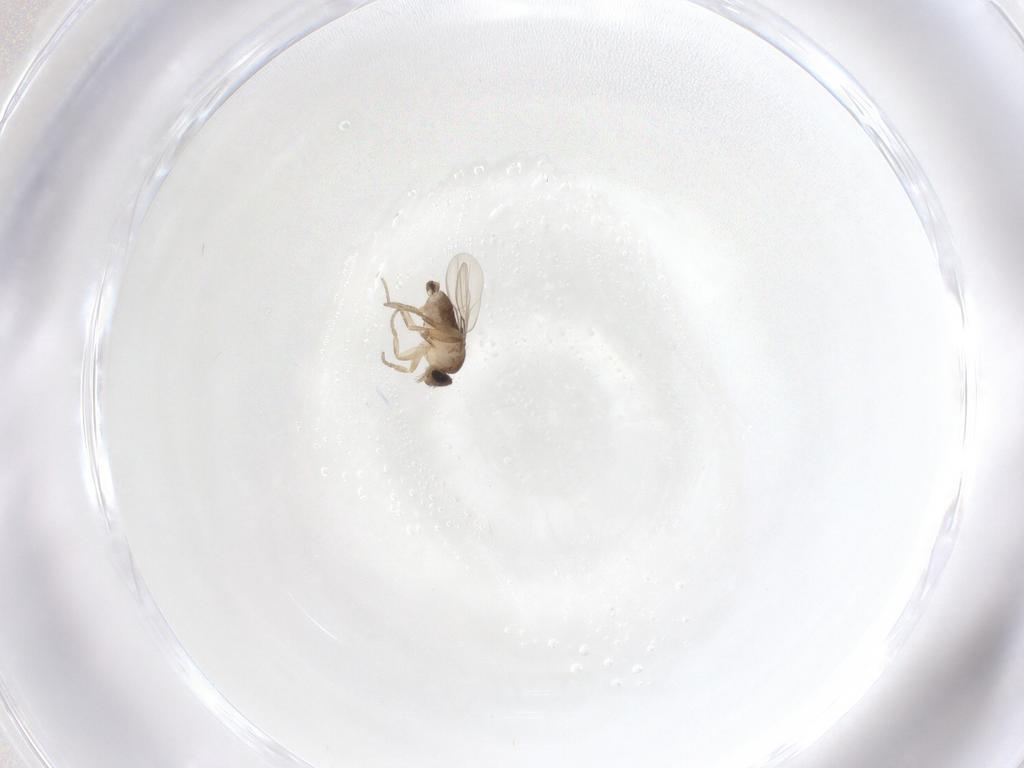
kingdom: Animalia
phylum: Arthropoda
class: Insecta
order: Diptera
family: Phoridae
